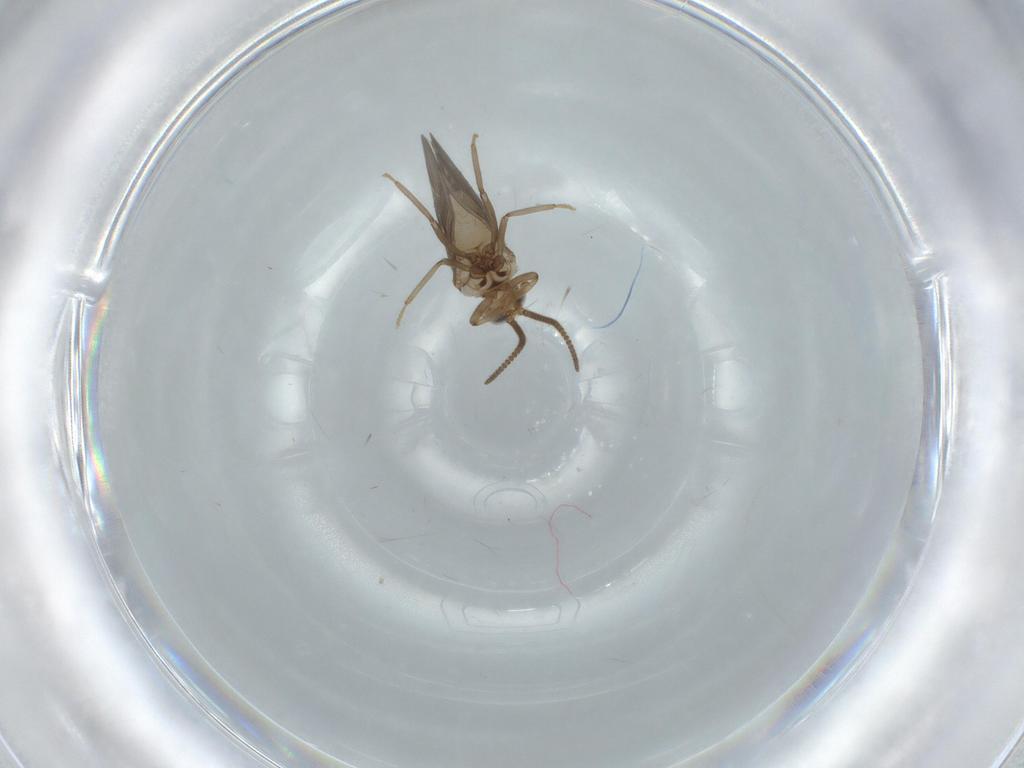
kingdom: Animalia
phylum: Arthropoda
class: Insecta
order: Neuroptera
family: Coniopterygidae
